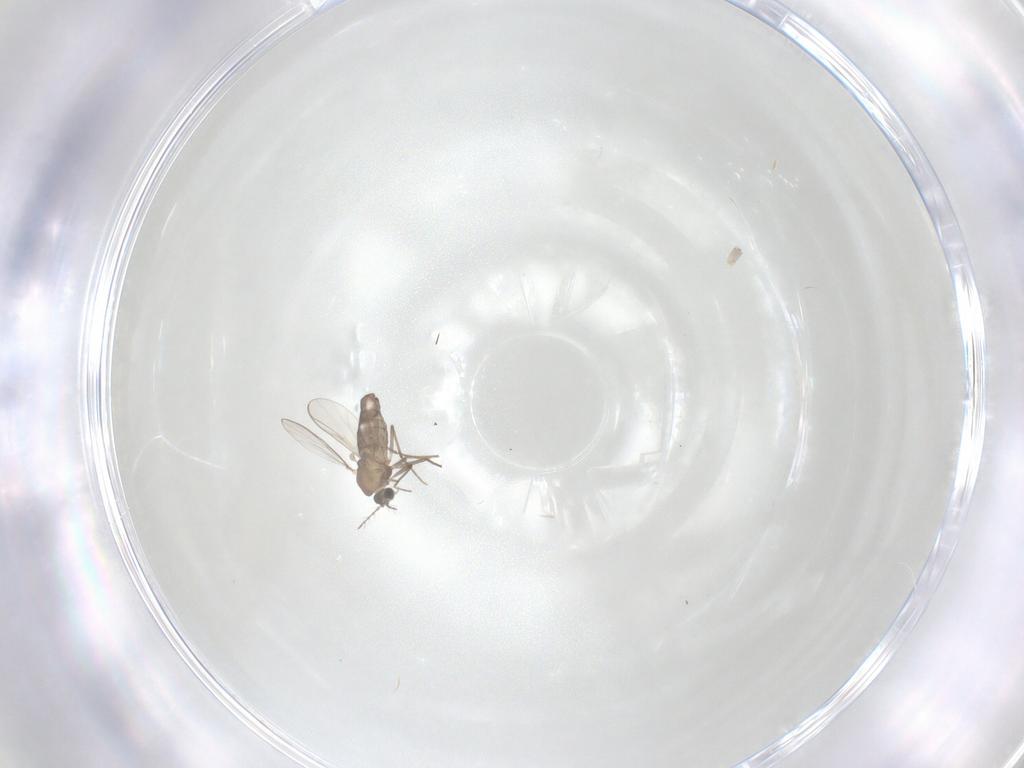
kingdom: Animalia
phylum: Arthropoda
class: Insecta
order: Diptera
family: Chironomidae
